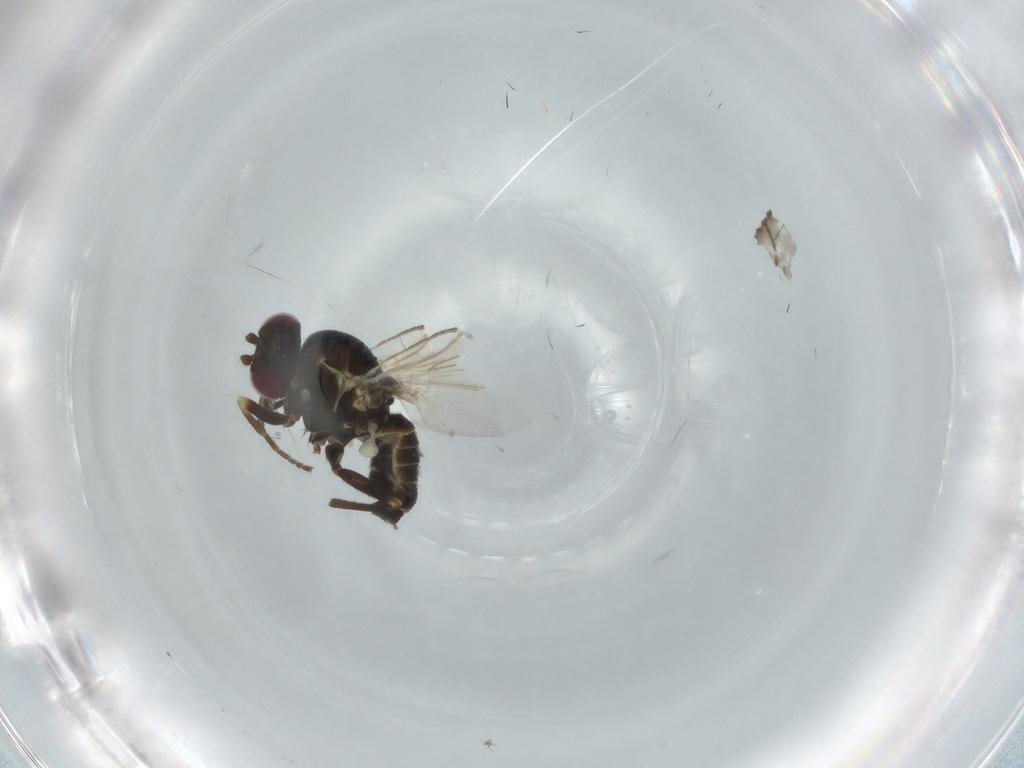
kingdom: Animalia
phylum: Arthropoda
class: Insecta
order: Diptera
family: Chironomidae
